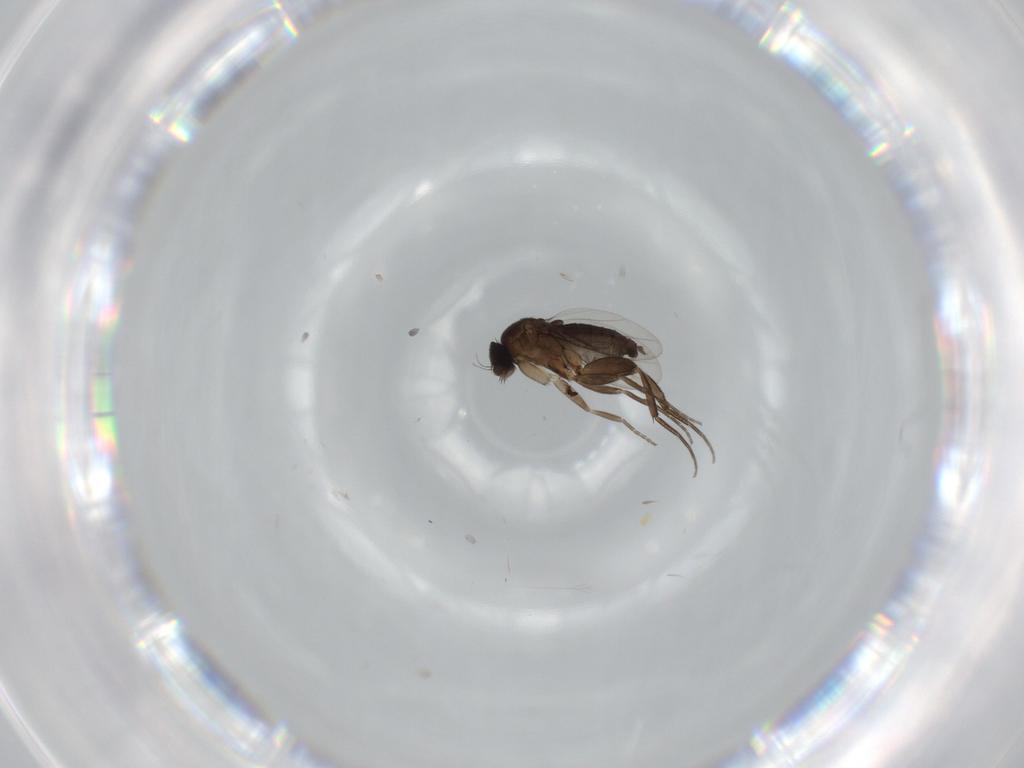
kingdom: Animalia
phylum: Arthropoda
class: Insecta
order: Diptera
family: Phoridae
